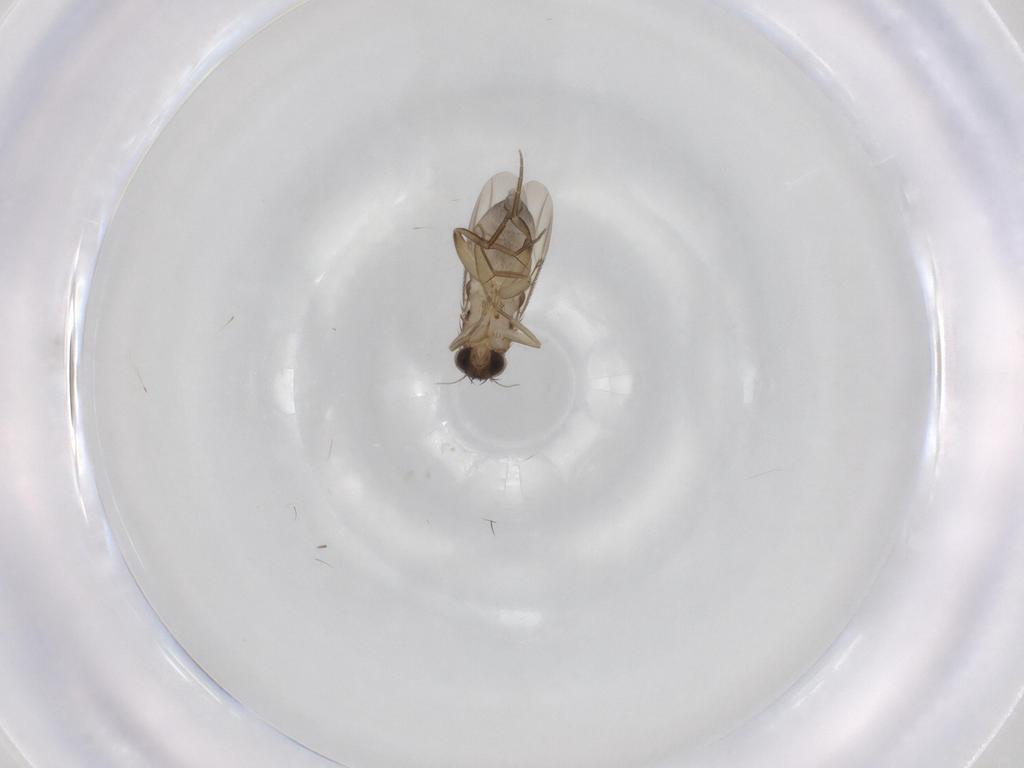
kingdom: Animalia
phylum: Arthropoda
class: Insecta
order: Diptera
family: Phoridae
